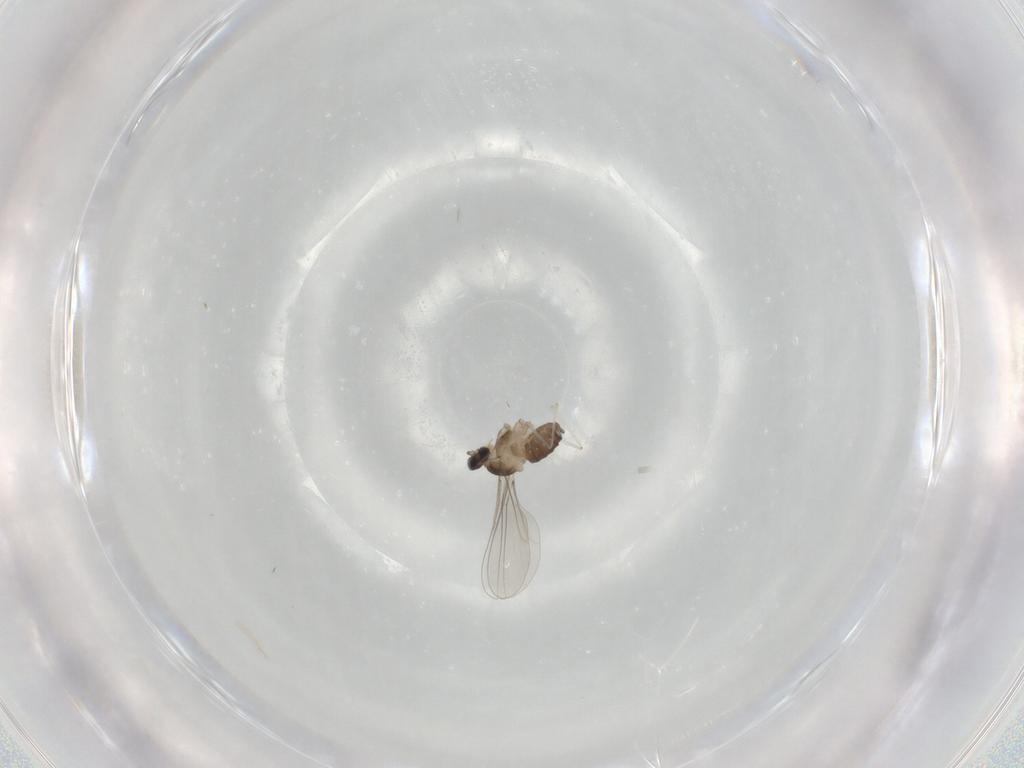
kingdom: Animalia
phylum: Arthropoda
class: Insecta
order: Diptera
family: Cecidomyiidae
